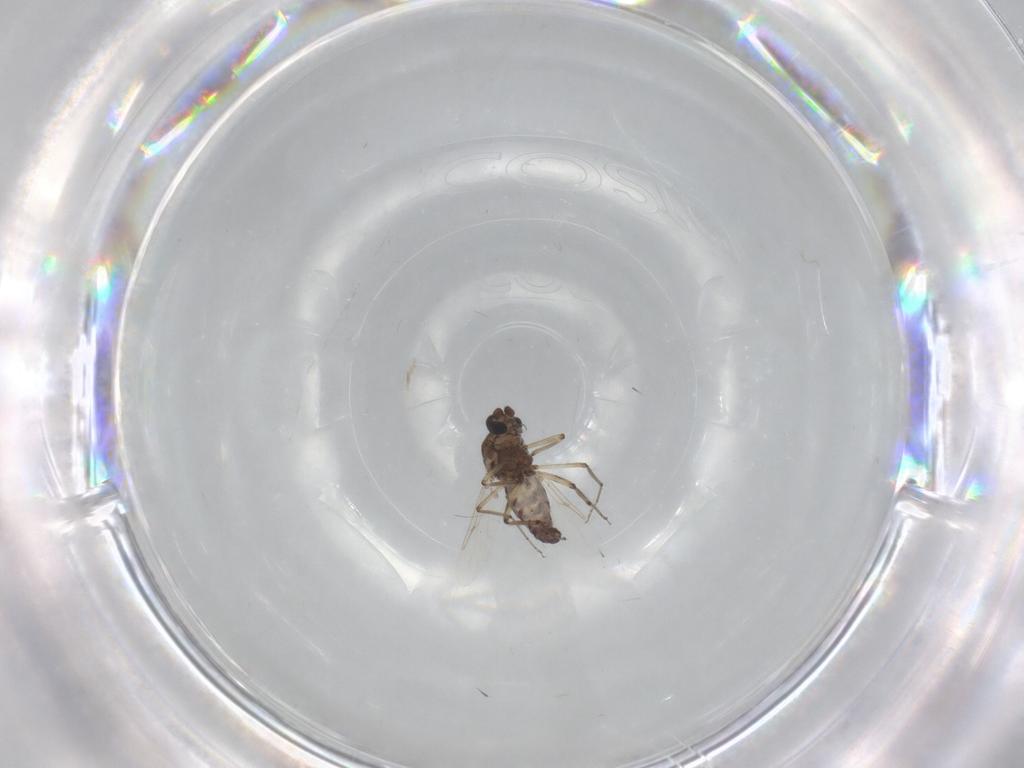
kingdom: Animalia
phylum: Arthropoda
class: Insecta
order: Diptera
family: Ceratopogonidae
